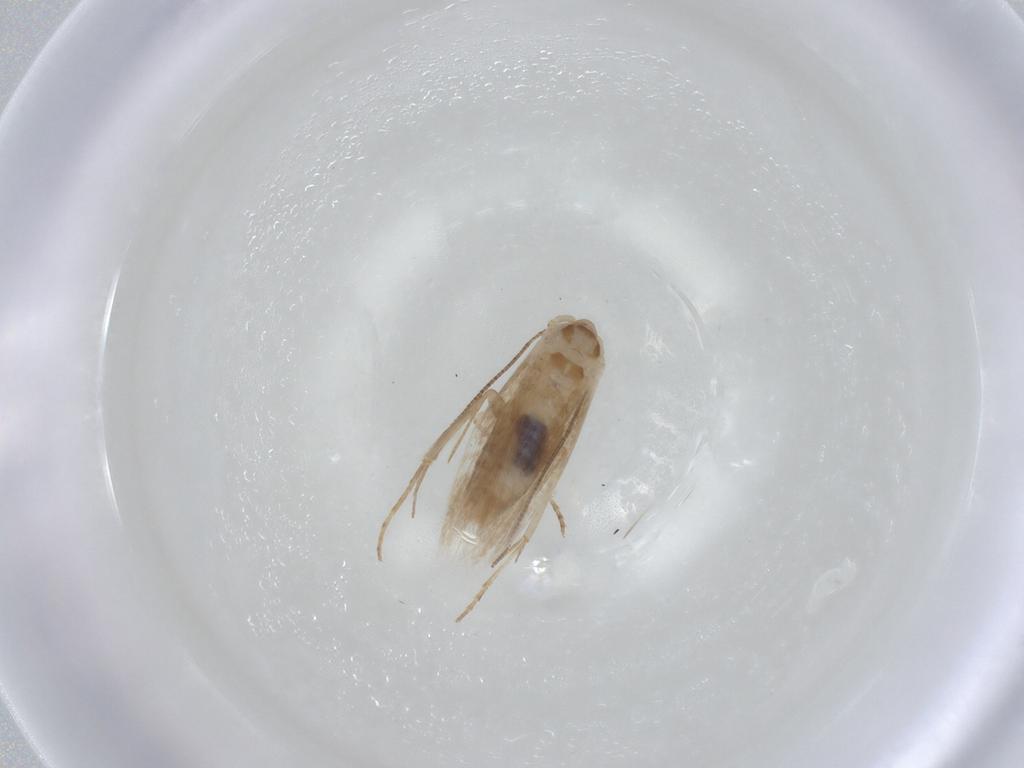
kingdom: Animalia
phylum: Arthropoda
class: Insecta
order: Lepidoptera
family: Bucculatricidae
